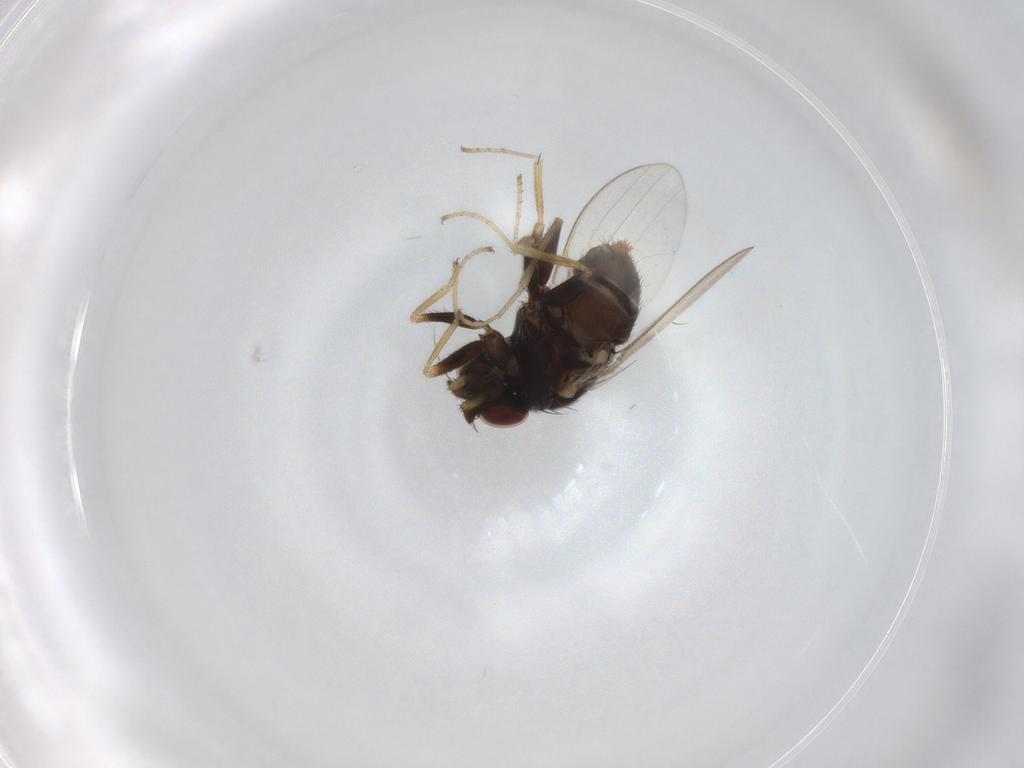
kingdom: Animalia
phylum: Arthropoda
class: Insecta
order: Diptera
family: Milichiidae
